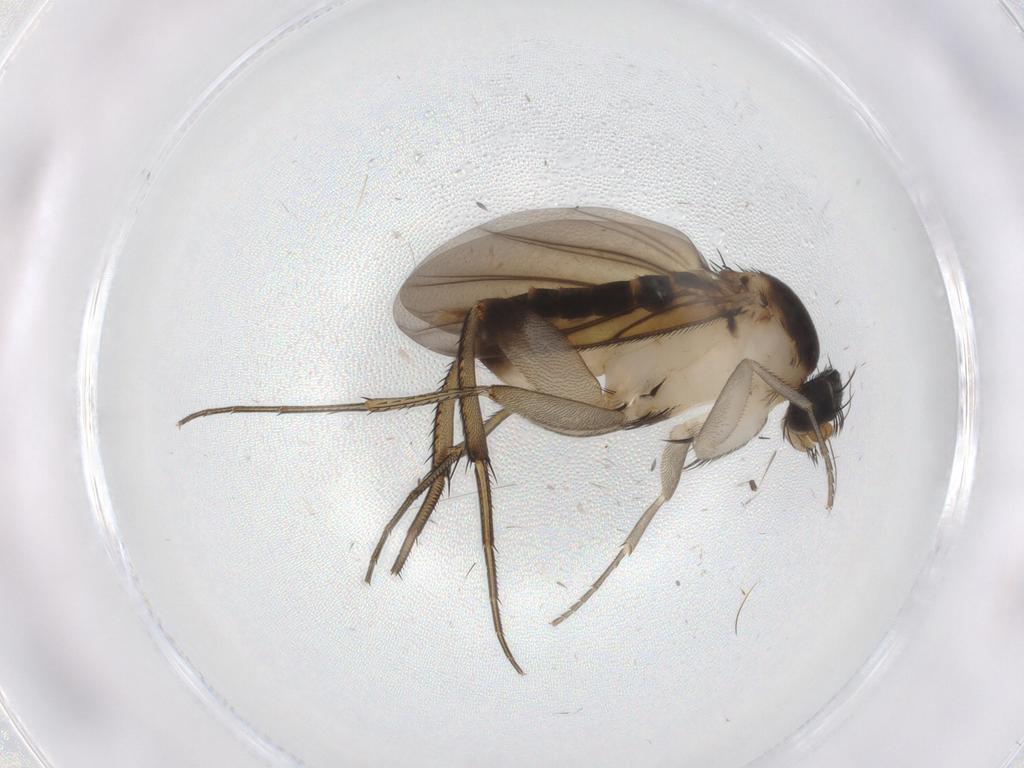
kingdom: Animalia
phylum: Arthropoda
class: Insecta
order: Diptera
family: Phoridae
